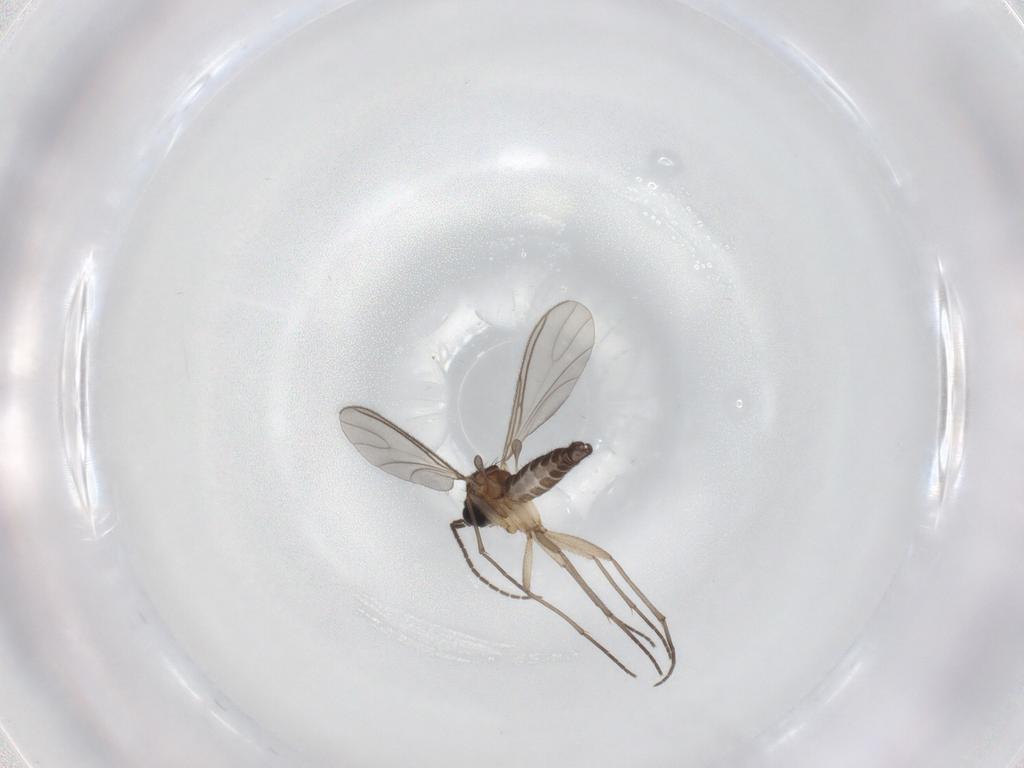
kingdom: Animalia
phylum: Arthropoda
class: Insecta
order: Diptera
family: Sciaridae
